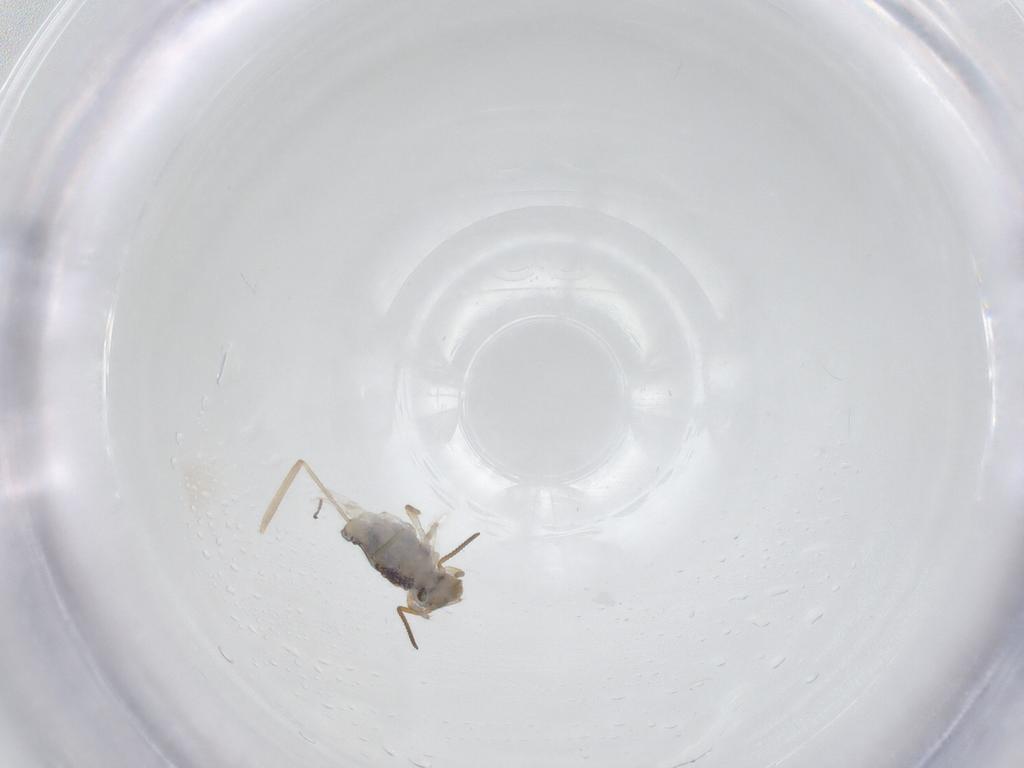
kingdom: Animalia
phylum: Arthropoda
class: Collembola
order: Symphypleona
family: Katiannidae
